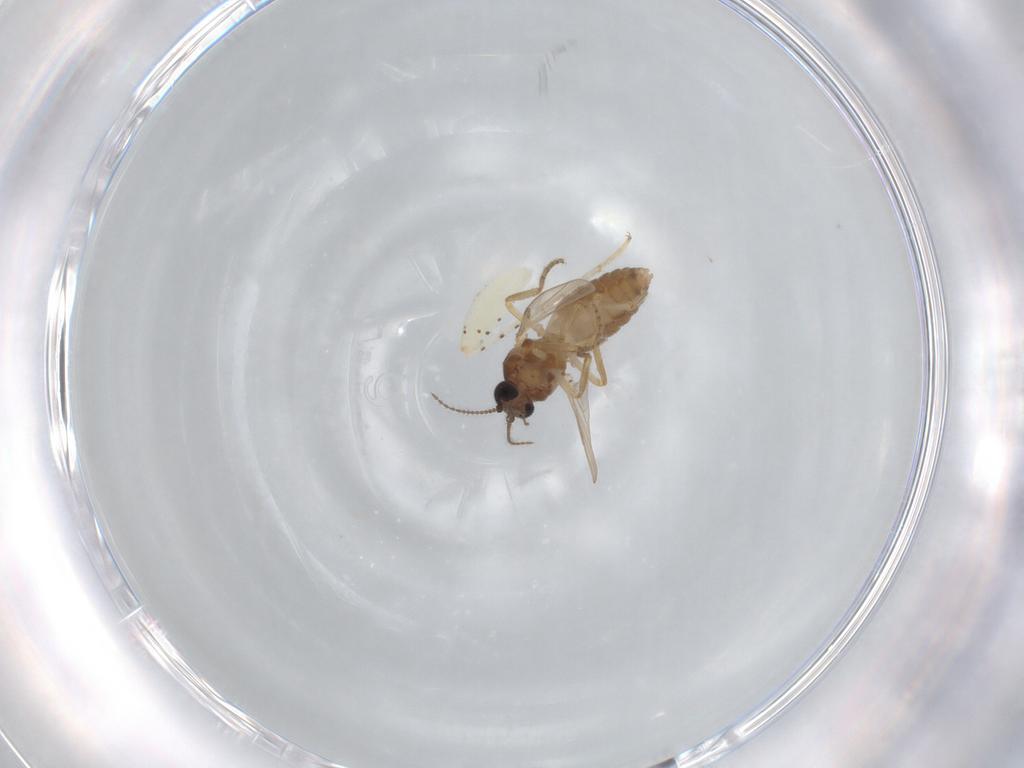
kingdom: Animalia
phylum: Arthropoda
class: Insecta
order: Diptera
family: Ceratopogonidae
